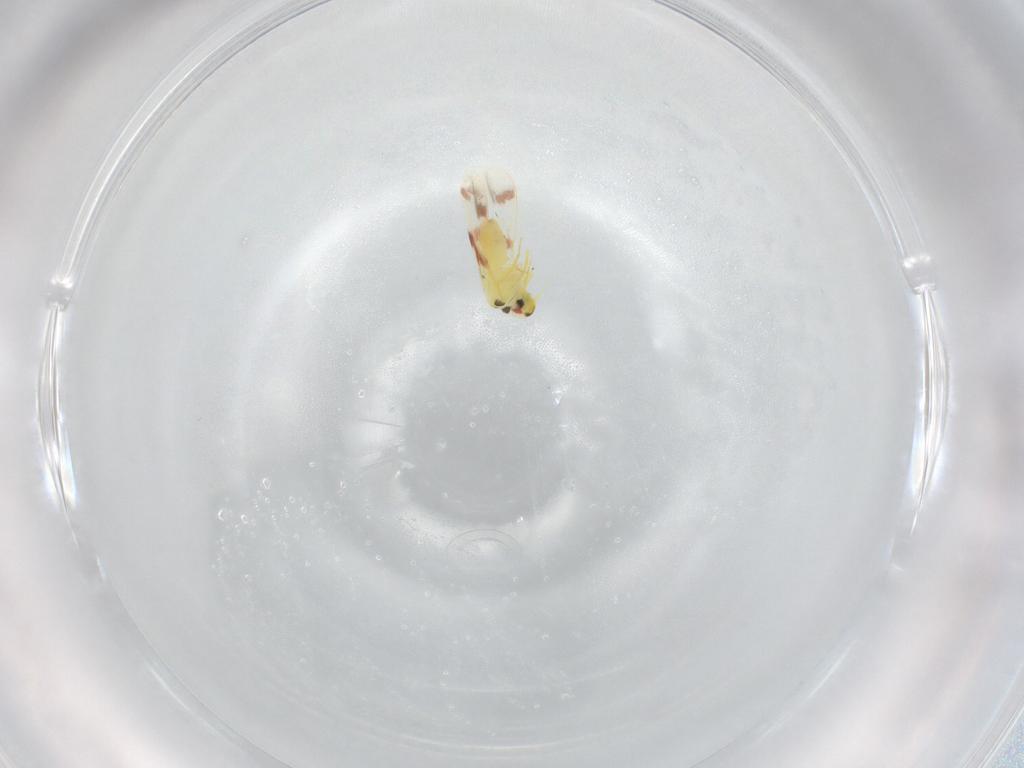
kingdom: Animalia
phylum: Arthropoda
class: Insecta
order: Hemiptera
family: Aleyrodidae
